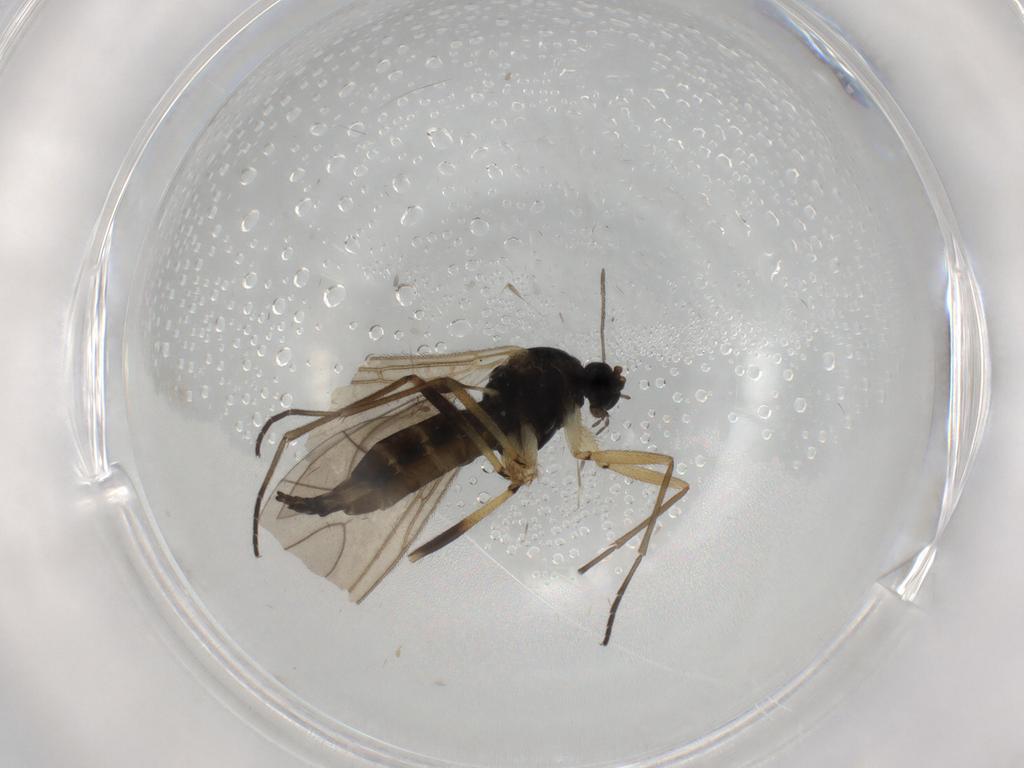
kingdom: Animalia
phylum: Arthropoda
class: Insecta
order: Diptera
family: Sciaridae
